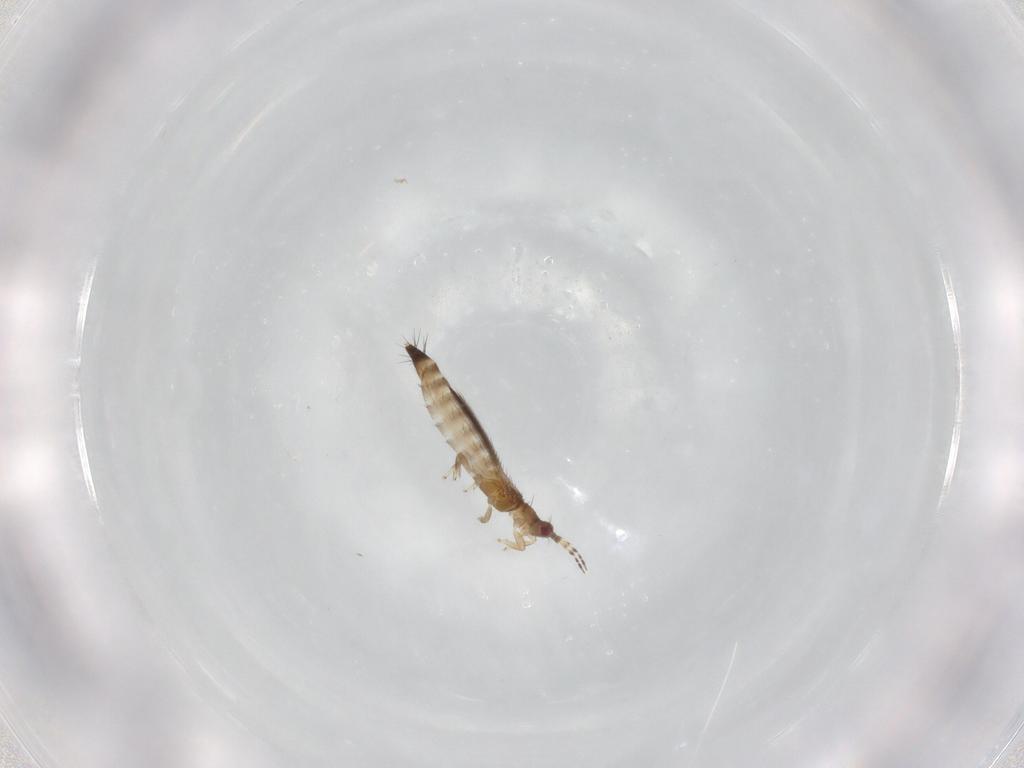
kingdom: Animalia
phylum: Arthropoda
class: Insecta
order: Thysanoptera
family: Thripidae
